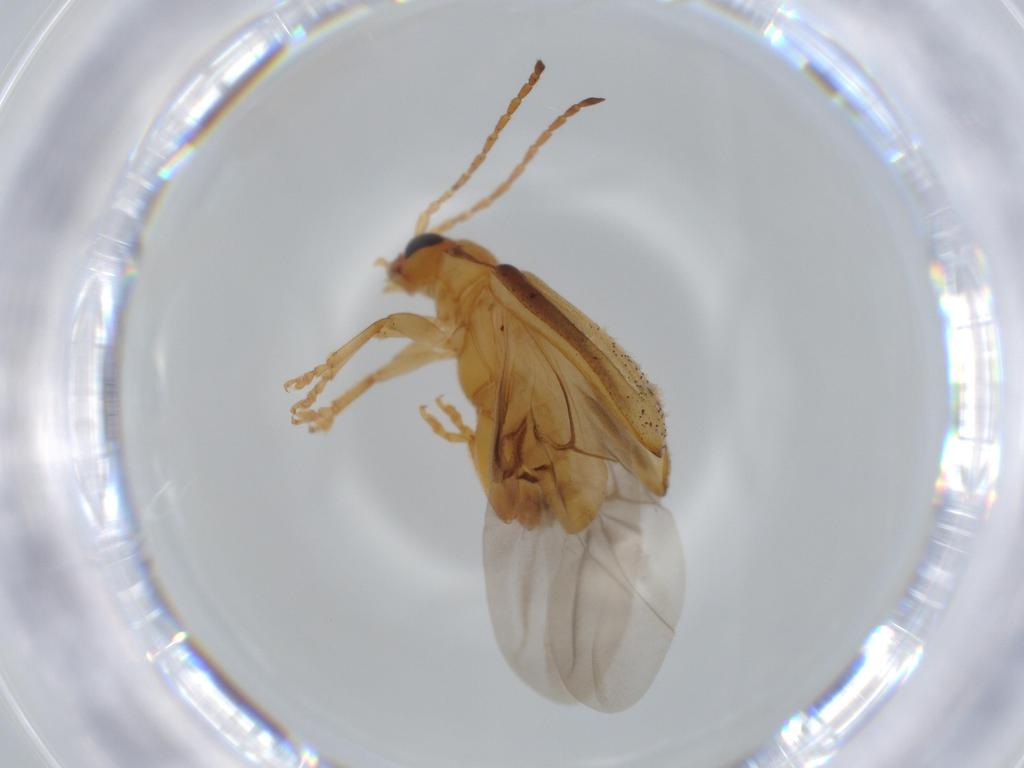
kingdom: Animalia
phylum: Arthropoda
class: Insecta
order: Coleoptera
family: Chrysomelidae
